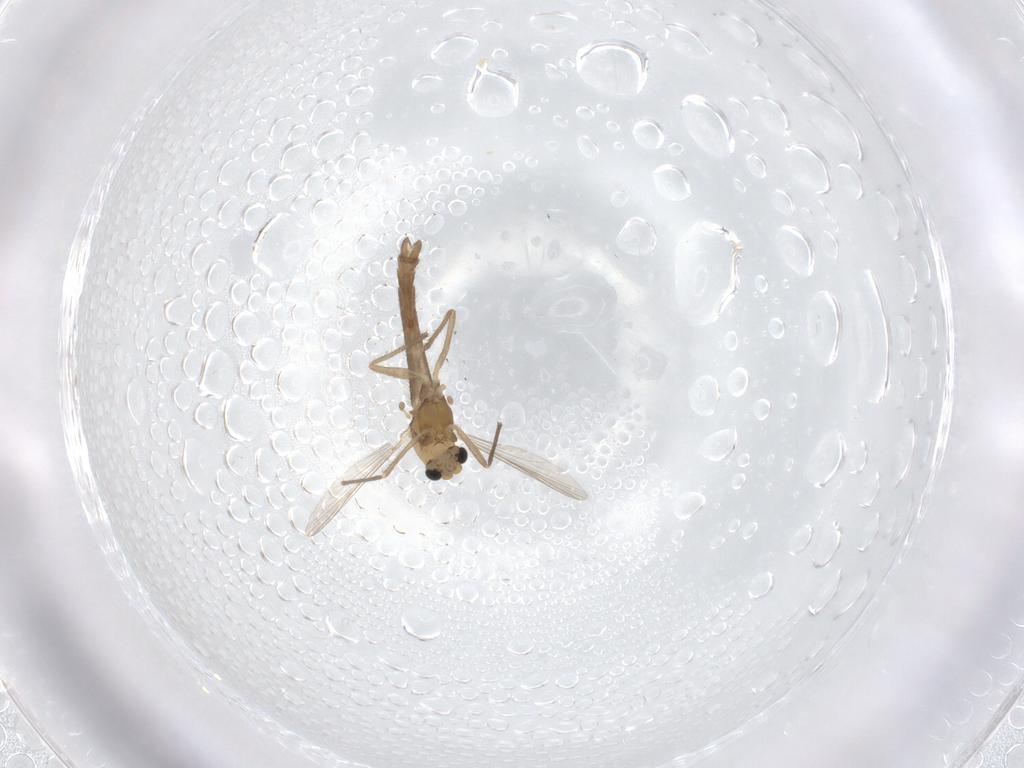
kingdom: Animalia
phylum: Arthropoda
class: Insecta
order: Diptera
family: Chironomidae
